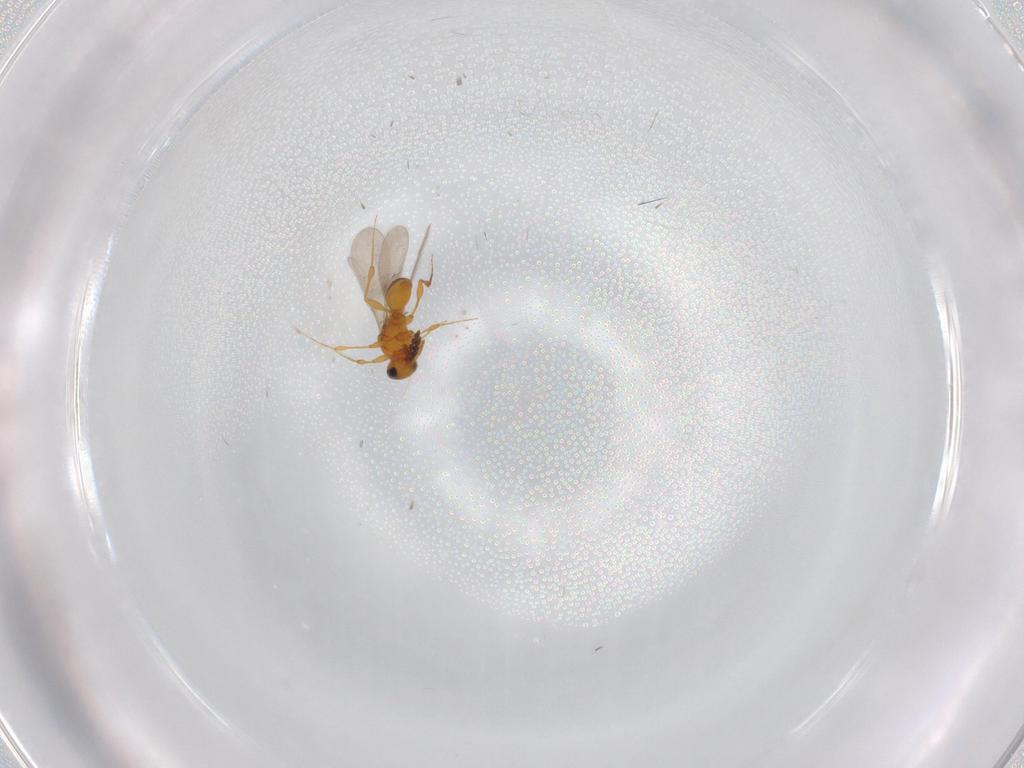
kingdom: Animalia
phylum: Arthropoda
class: Insecta
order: Hymenoptera
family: Platygastridae
